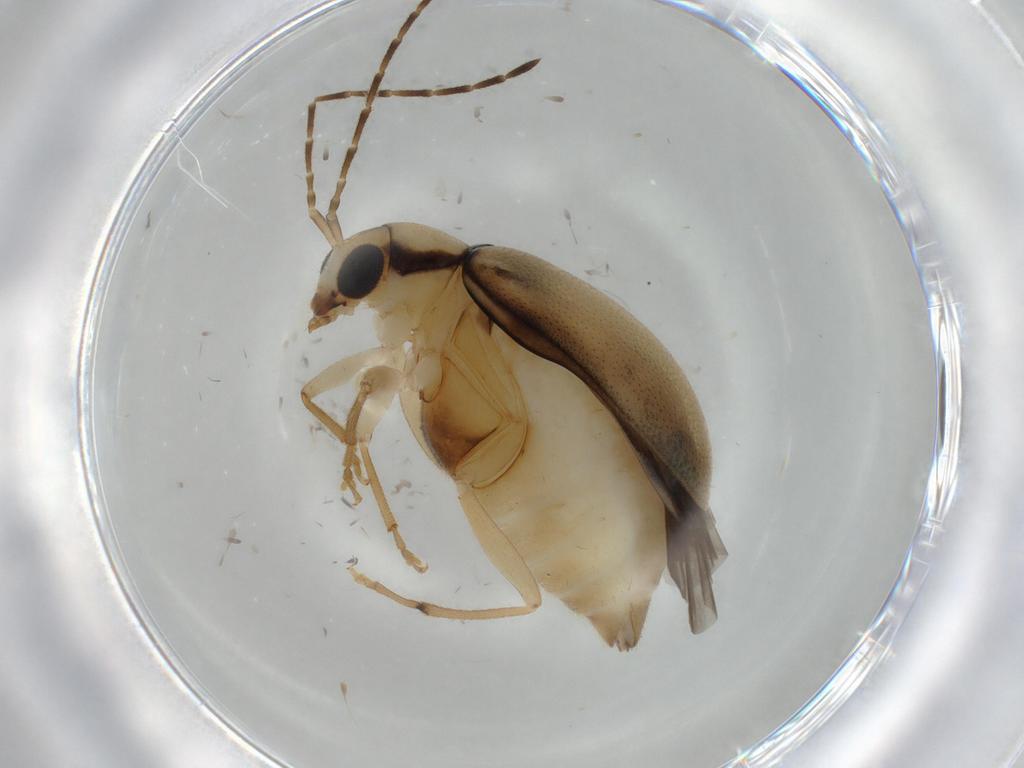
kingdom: Animalia
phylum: Arthropoda
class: Insecta
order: Coleoptera
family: Chrysomelidae
